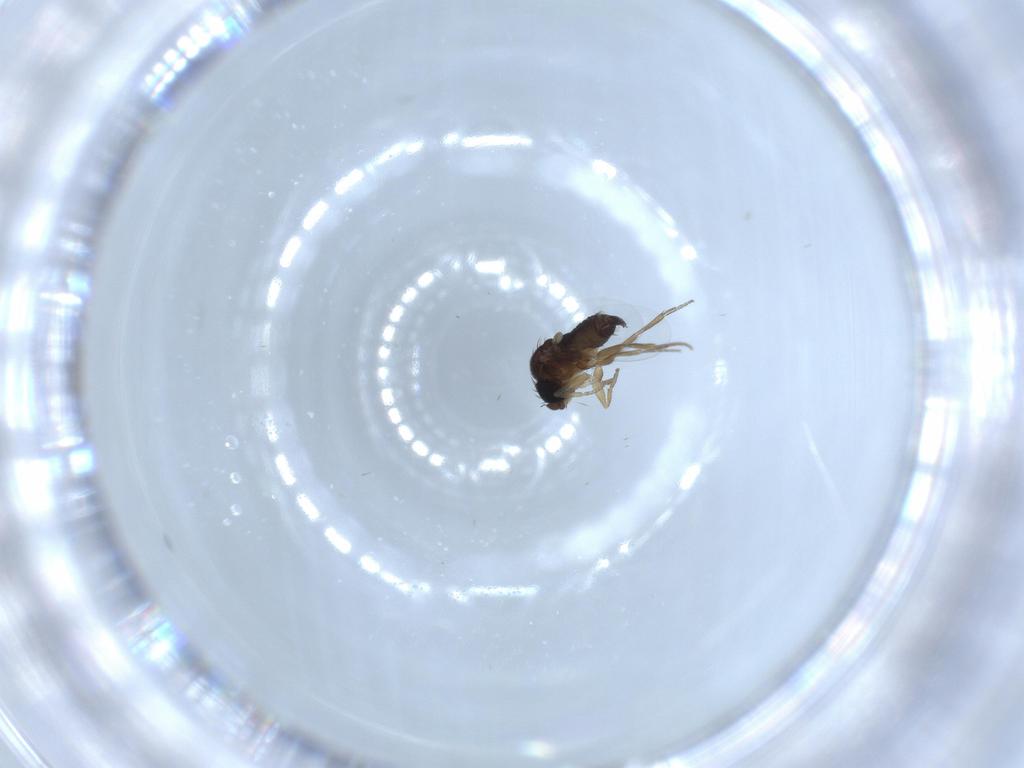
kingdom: Animalia
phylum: Arthropoda
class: Insecta
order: Diptera
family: Phoridae
